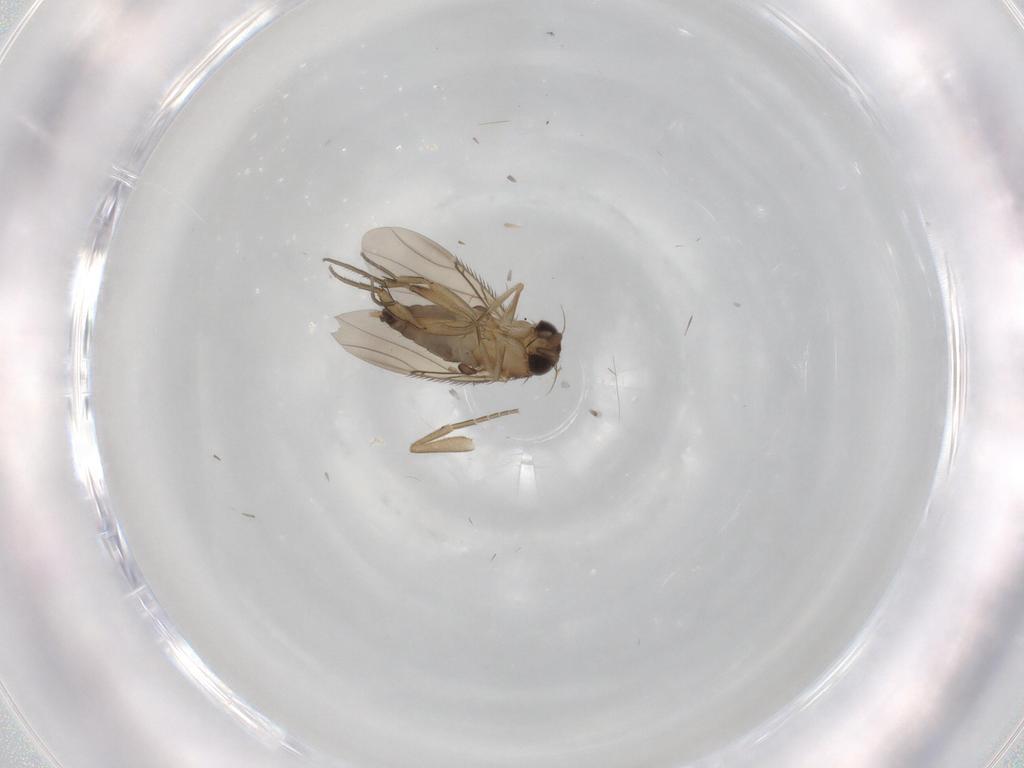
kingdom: Animalia
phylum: Arthropoda
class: Insecta
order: Diptera
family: Phoridae
